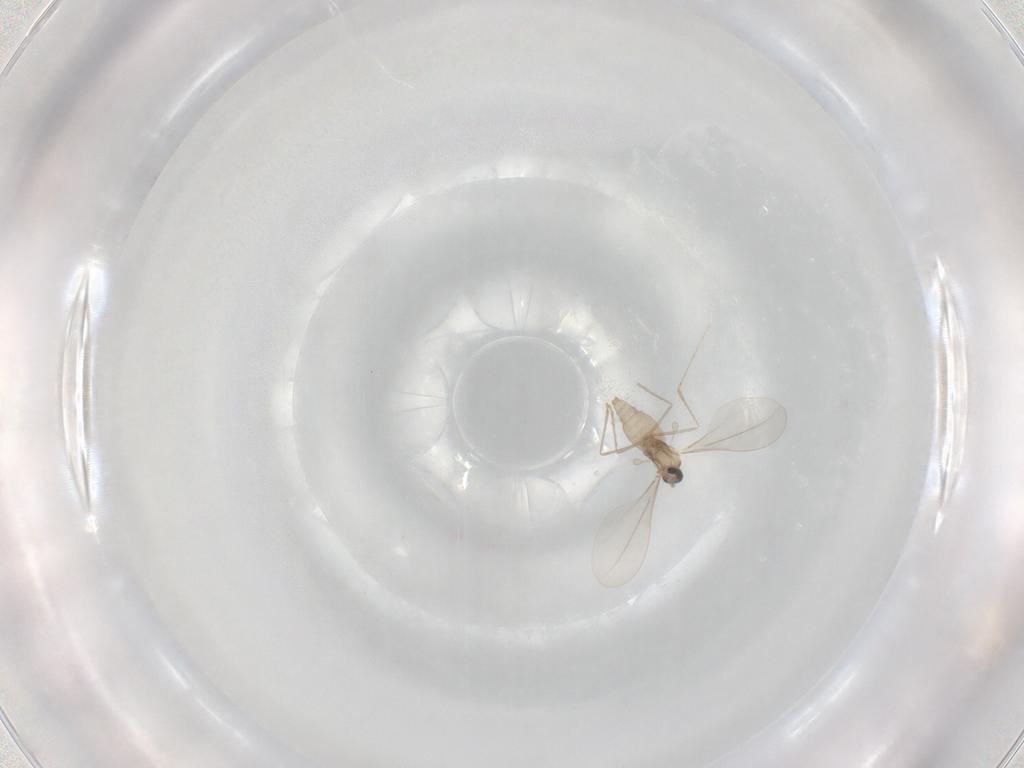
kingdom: Animalia
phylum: Arthropoda
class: Insecta
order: Diptera
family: Cecidomyiidae
